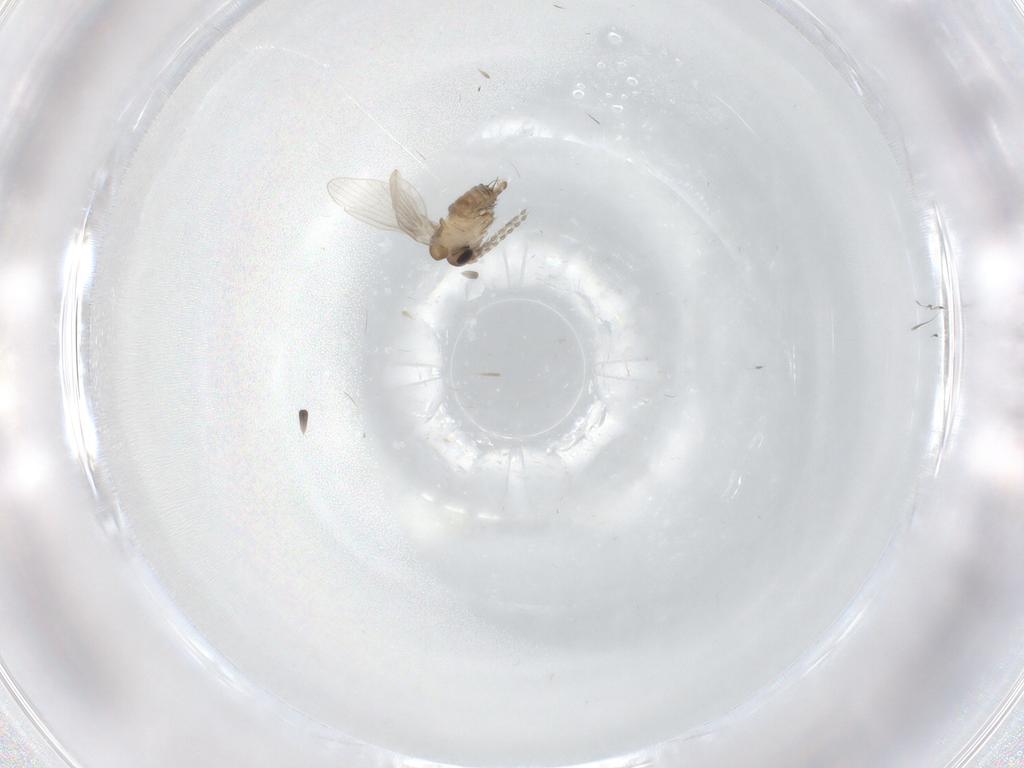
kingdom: Animalia
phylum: Arthropoda
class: Insecta
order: Diptera
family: Psychodidae
